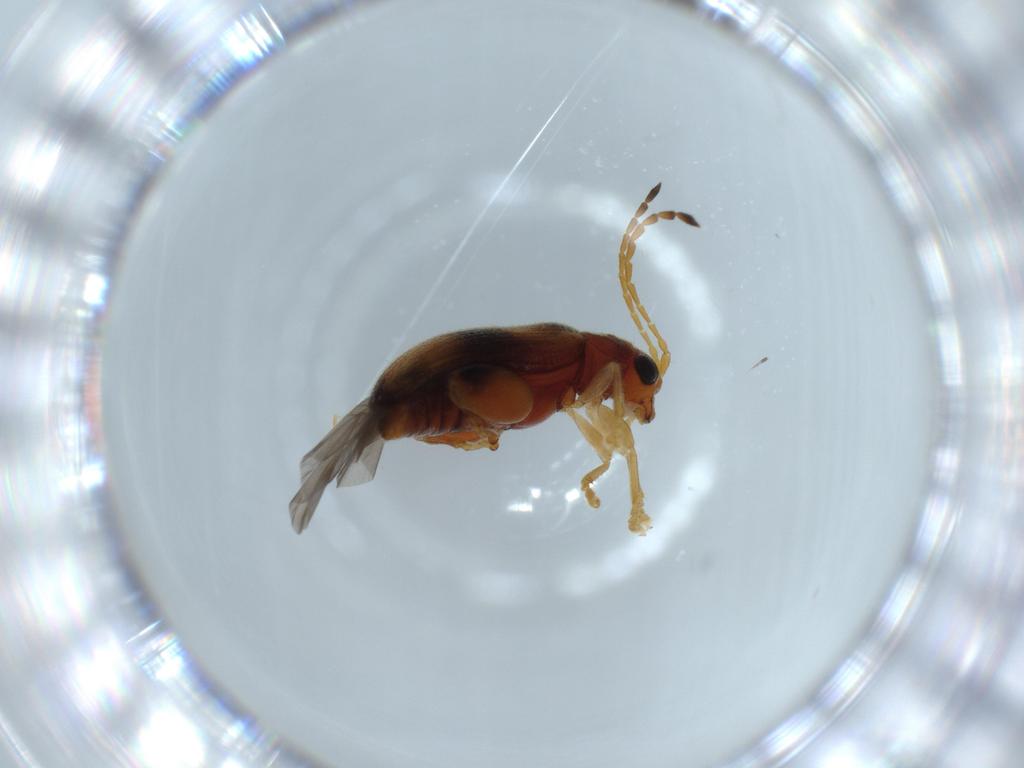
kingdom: Animalia
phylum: Arthropoda
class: Insecta
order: Coleoptera
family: Chrysomelidae
